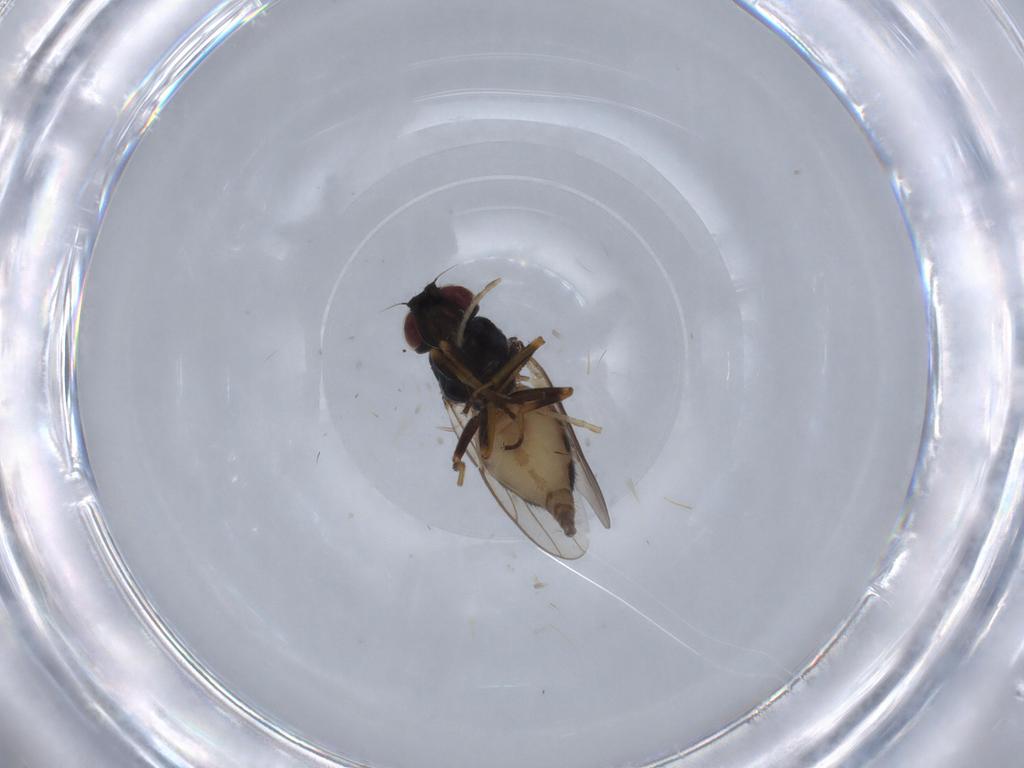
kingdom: Animalia
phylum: Arthropoda
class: Insecta
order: Diptera
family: Chloropidae
